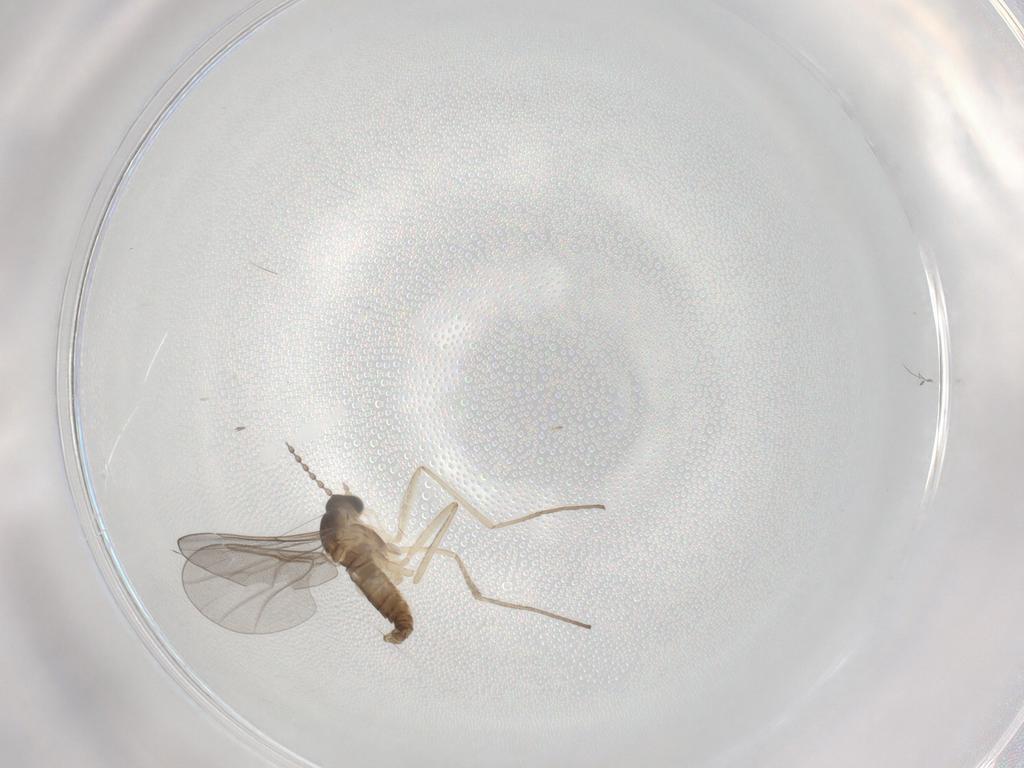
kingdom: Animalia
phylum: Arthropoda
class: Insecta
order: Diptera
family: Cecidomyiidae
